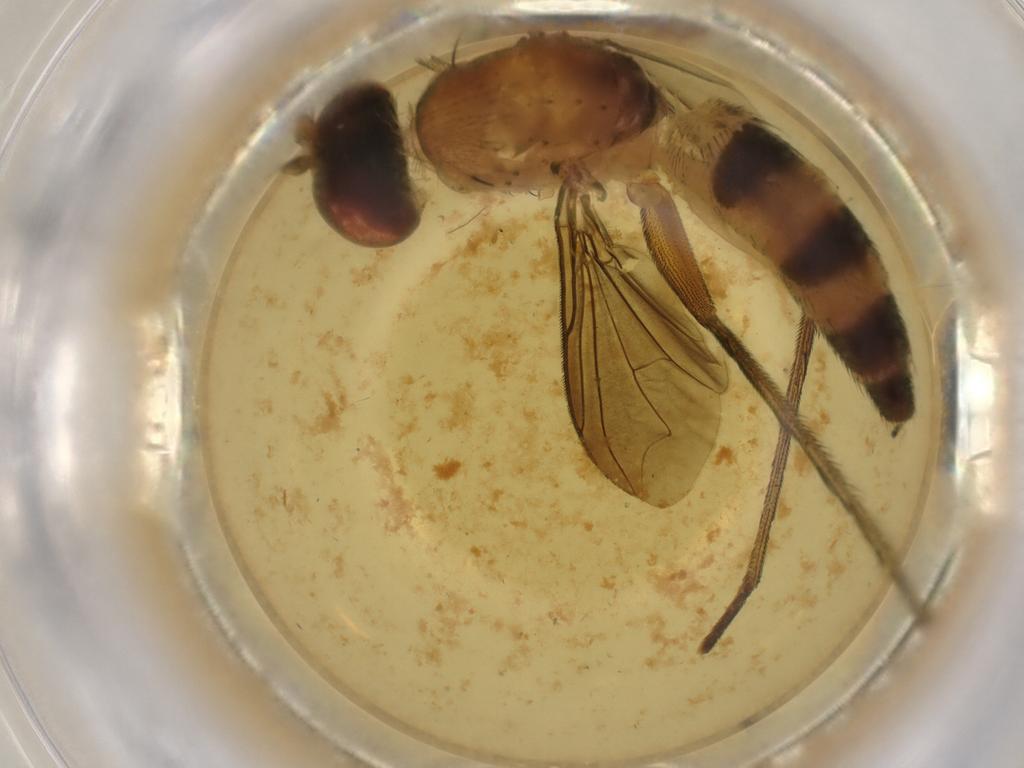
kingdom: Animalia
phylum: Arthropoda
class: Insecta
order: Diptera
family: Dolichopodidae
